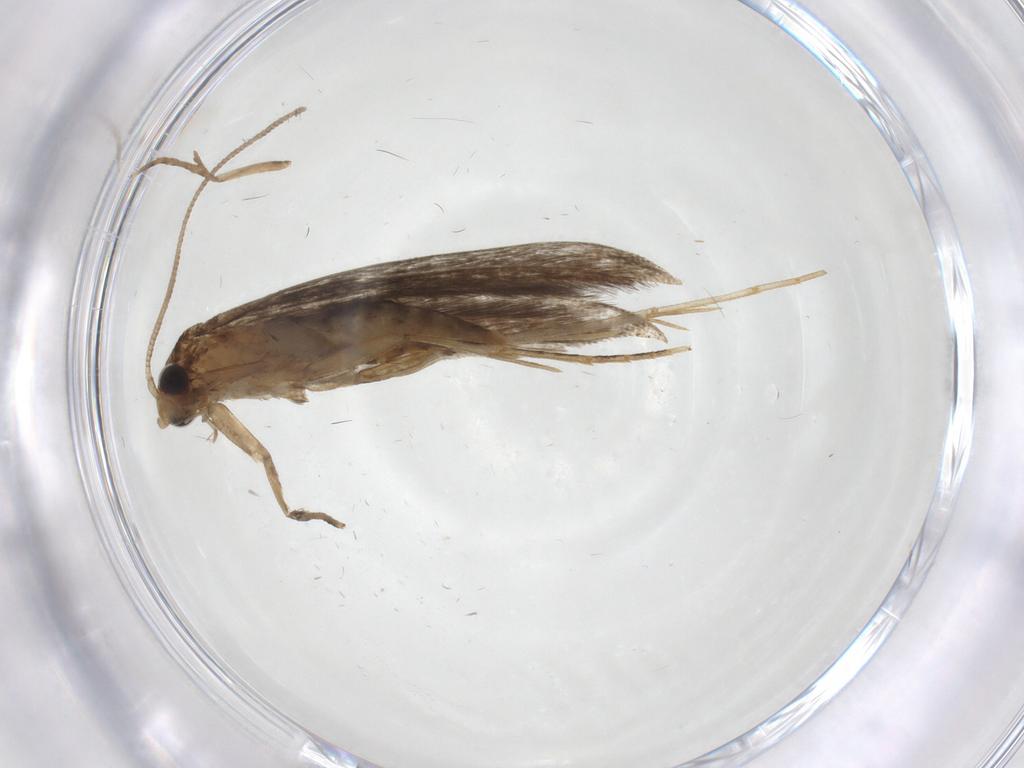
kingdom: Animalia
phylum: Arthropoda
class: Insecta
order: Lepidoptera
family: Tineidae
